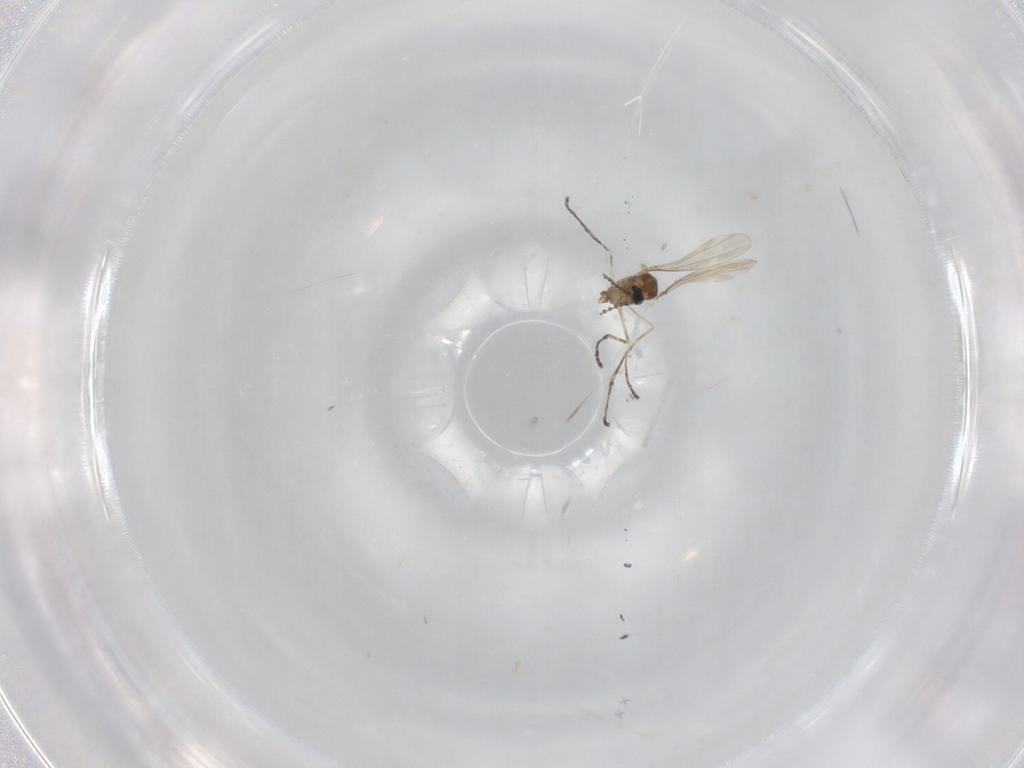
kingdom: Animalia
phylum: Arthropoda
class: Insecta
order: Diptera
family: Cecidomyiidae
